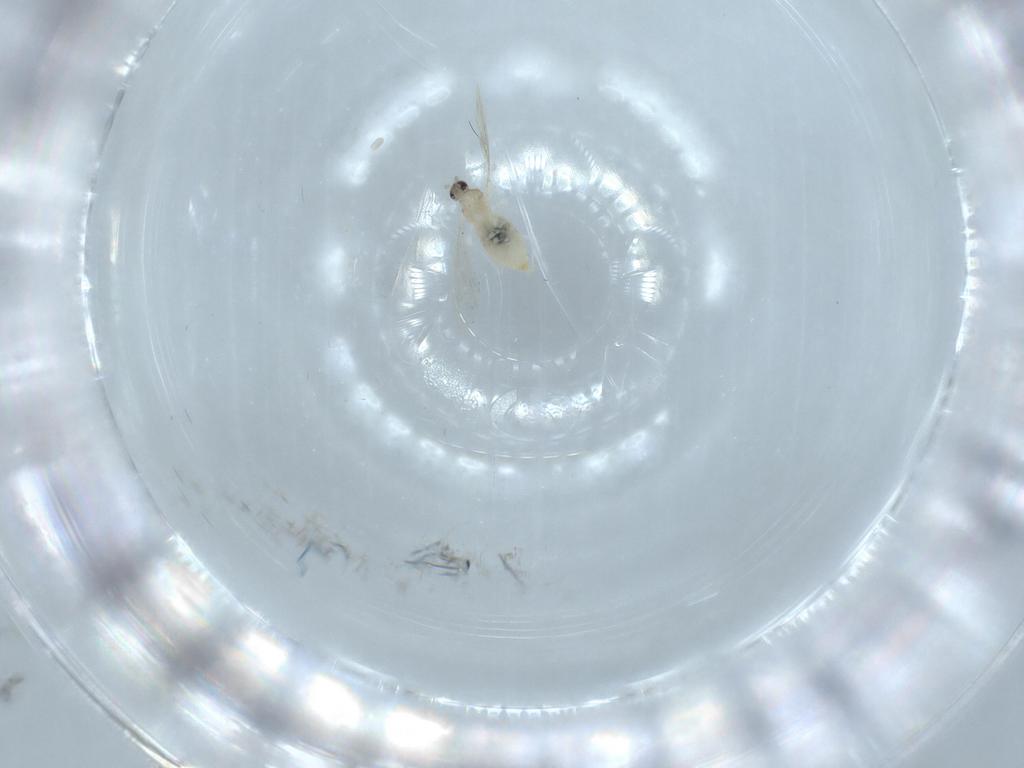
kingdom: Animalia
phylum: Arthropoda
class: Insecta
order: Diptera
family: Cecidomyiidae
